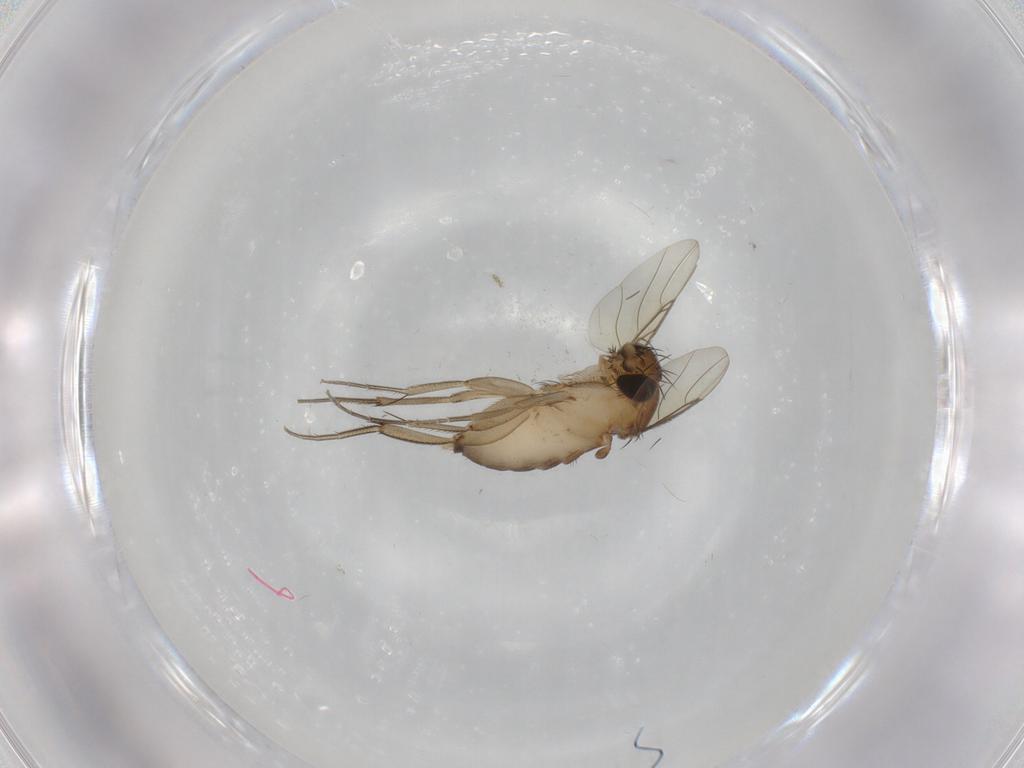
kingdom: Animalia
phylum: Arthropoda
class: Insecta
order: Diptera
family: Phoridae
